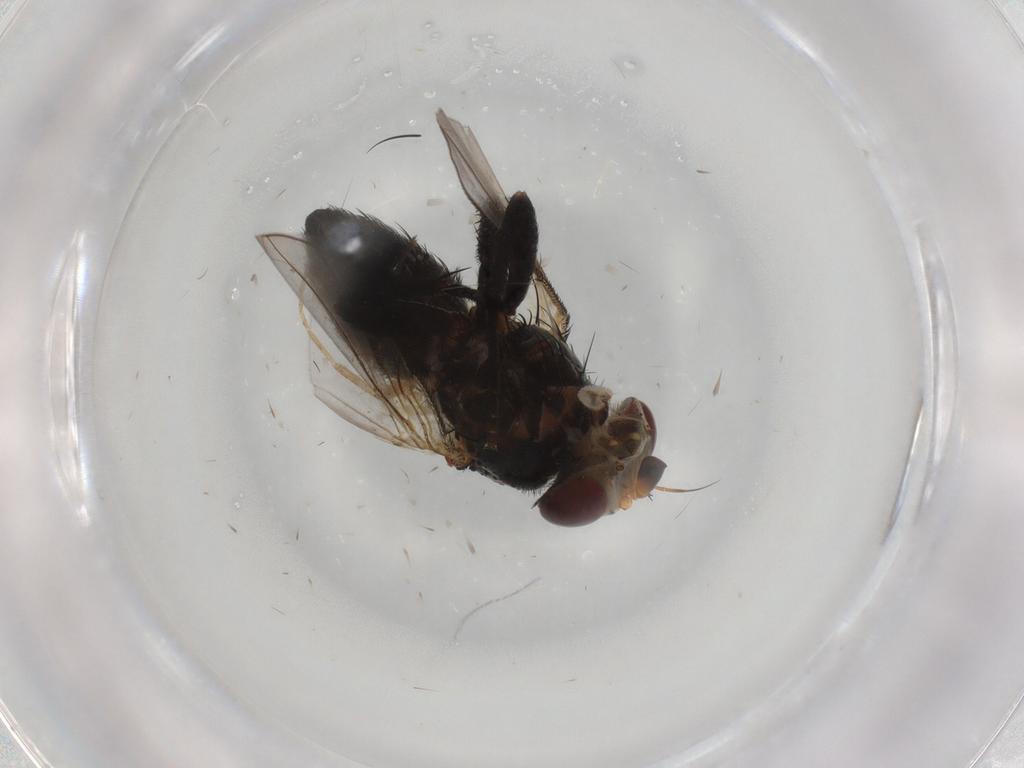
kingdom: Animalia
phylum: Arthropoda
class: Insecta
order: Diptera
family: Tachinidae
